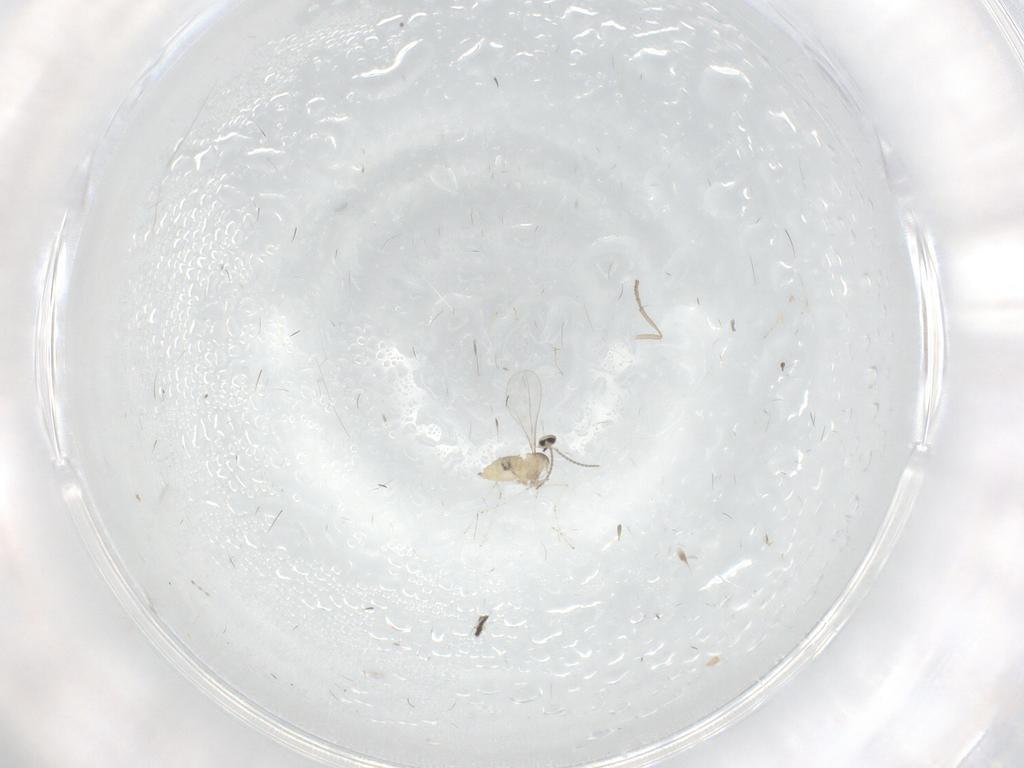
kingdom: Animalia
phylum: Arthropoda
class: Insecta
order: Diptera
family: Psychodidae
